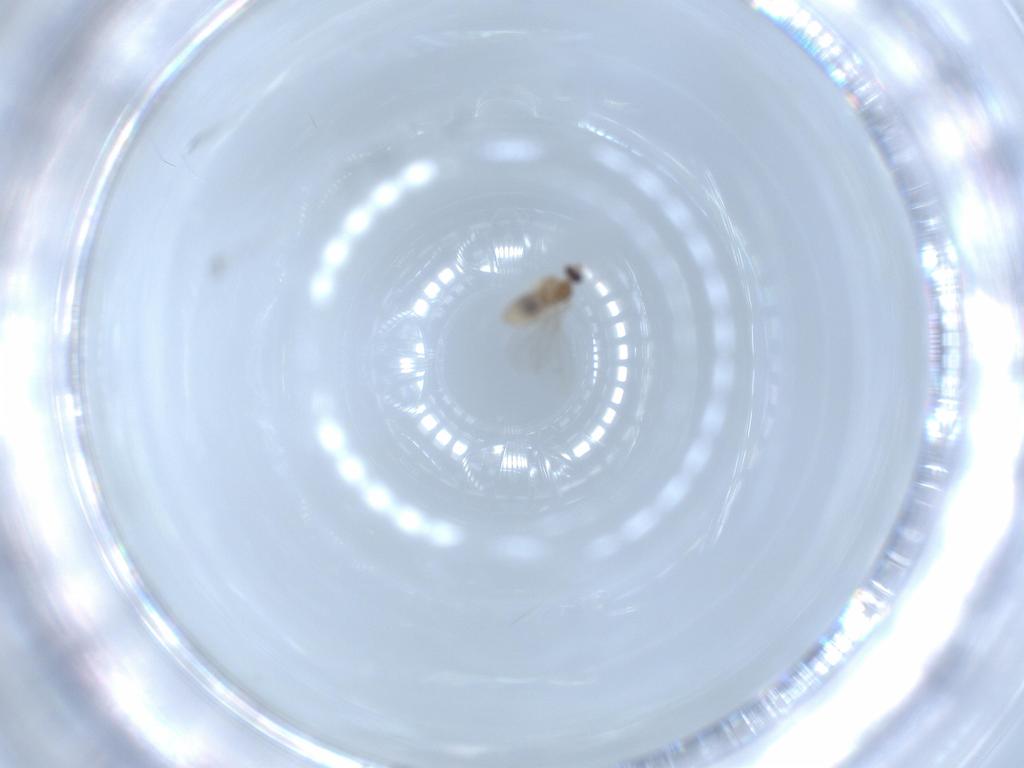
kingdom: Animalia
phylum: Arthropoda
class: Insecta
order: Diptera
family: Cecidomyiidae
